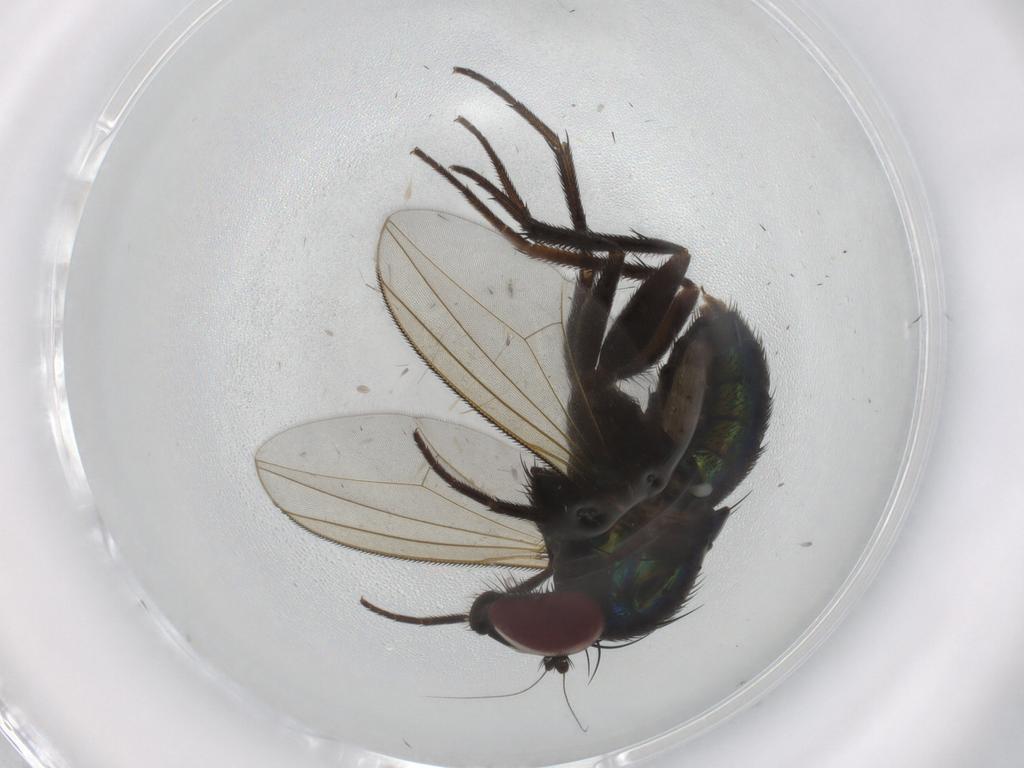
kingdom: Animalia
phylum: Arthropoda
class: Insecta
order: Diptera
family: Dolichopodidae
